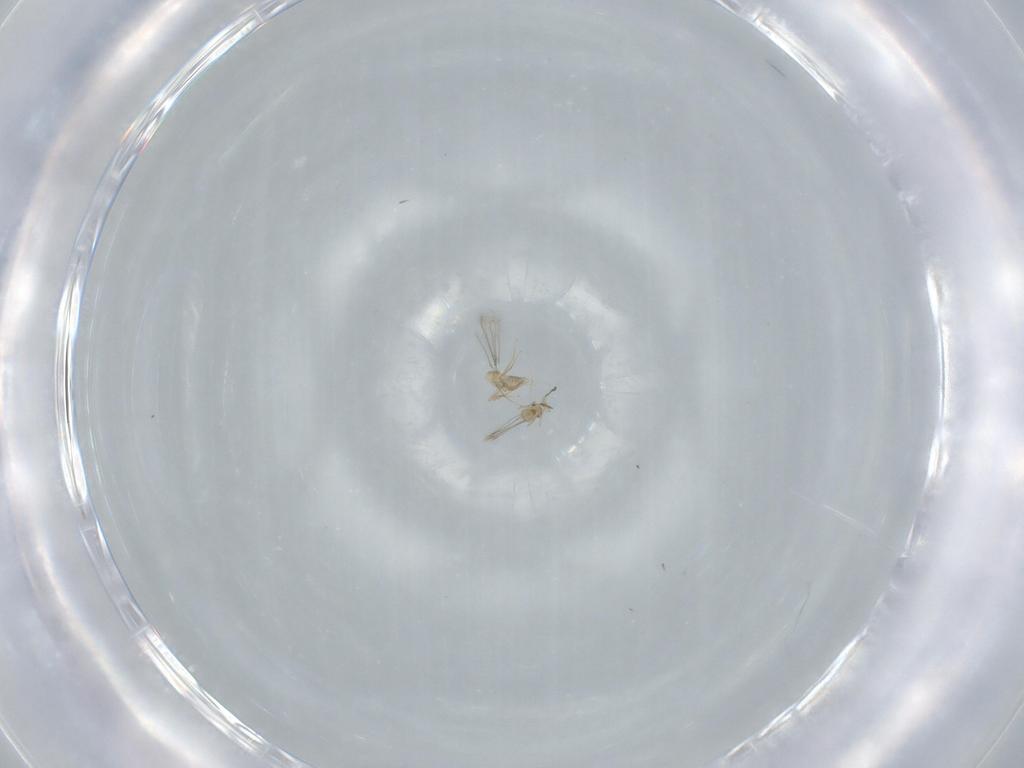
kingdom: Animalia
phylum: Arthropoda
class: Insecta
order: Hymenoptera
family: Mymaridae
